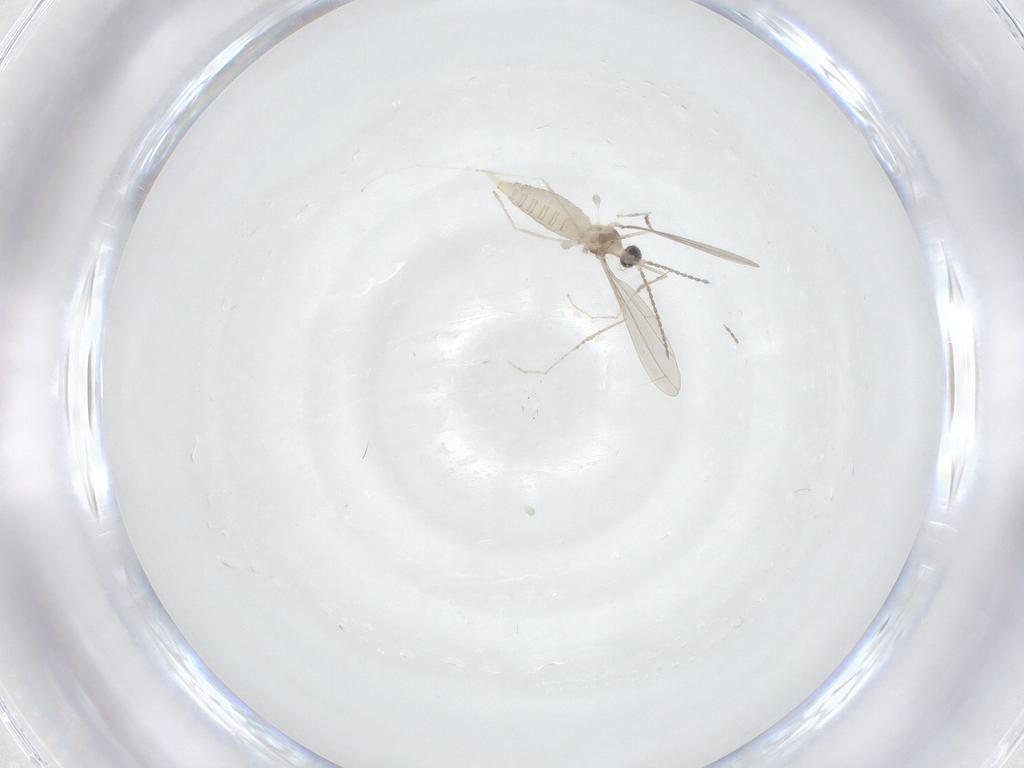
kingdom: Animalia
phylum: Arthropoda
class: Insecta
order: Diptera
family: Cecidomyiidae
